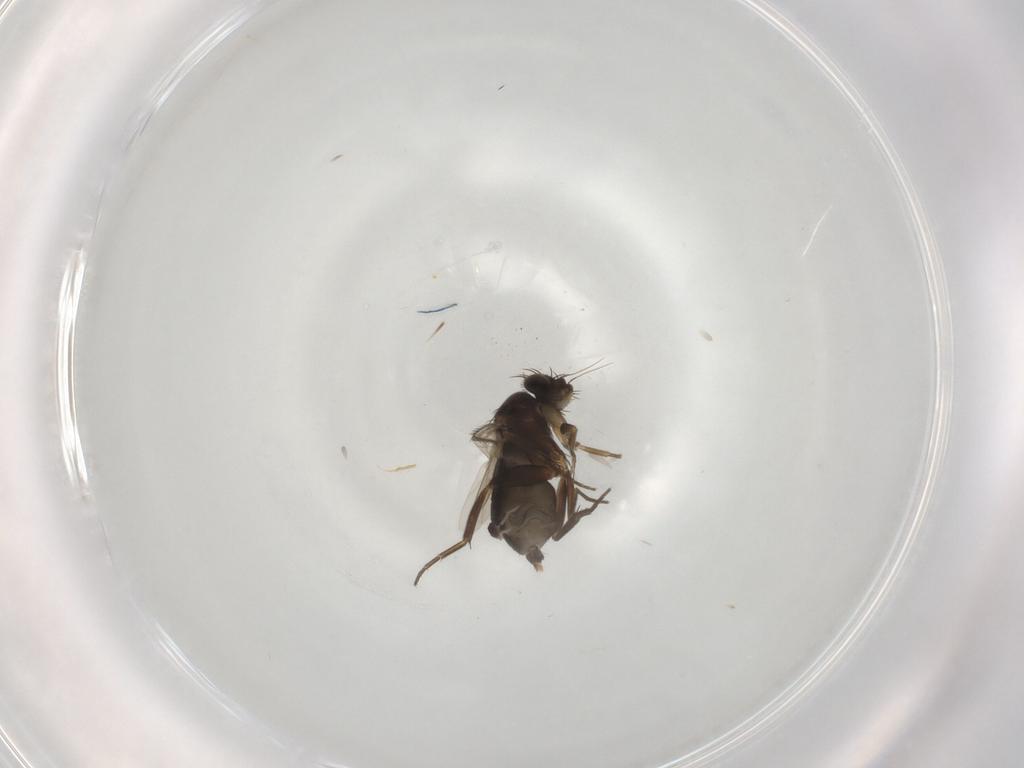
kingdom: Animalia
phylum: Arthropoda
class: Insecta
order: Diptera
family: Phoridae
